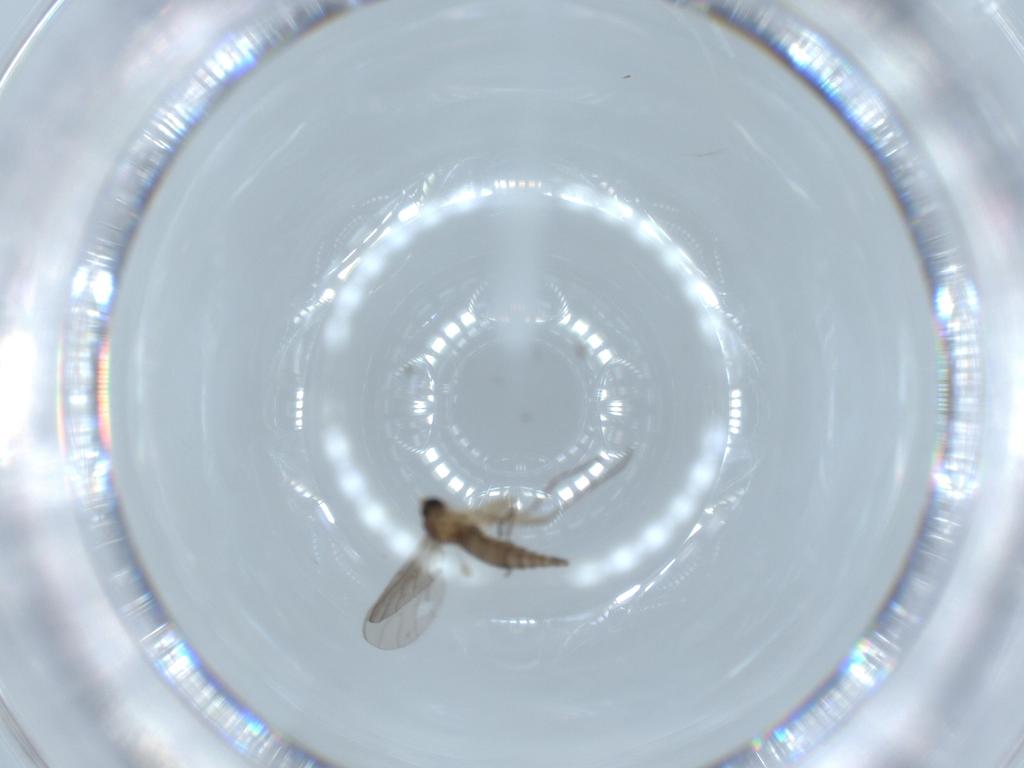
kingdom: Animalia
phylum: Arthropoda
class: Insecta
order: Diptera
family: Sciaridae
